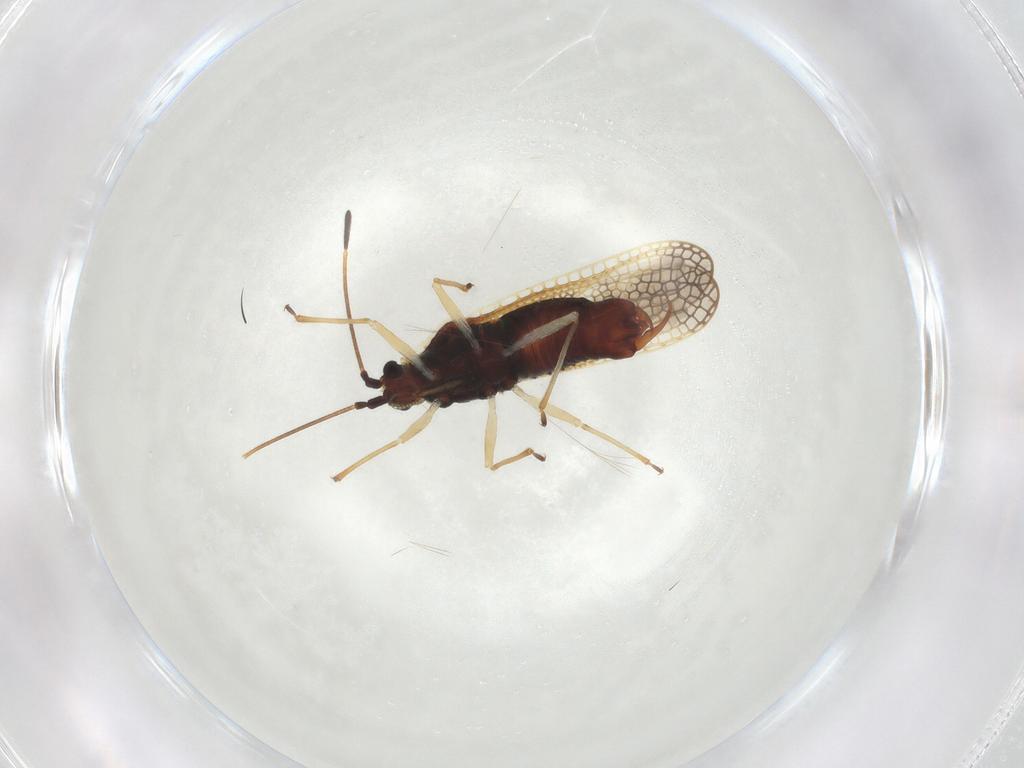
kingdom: Animalia
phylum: Arthropoda
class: Insecta
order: Hemiptera
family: Tingidae
